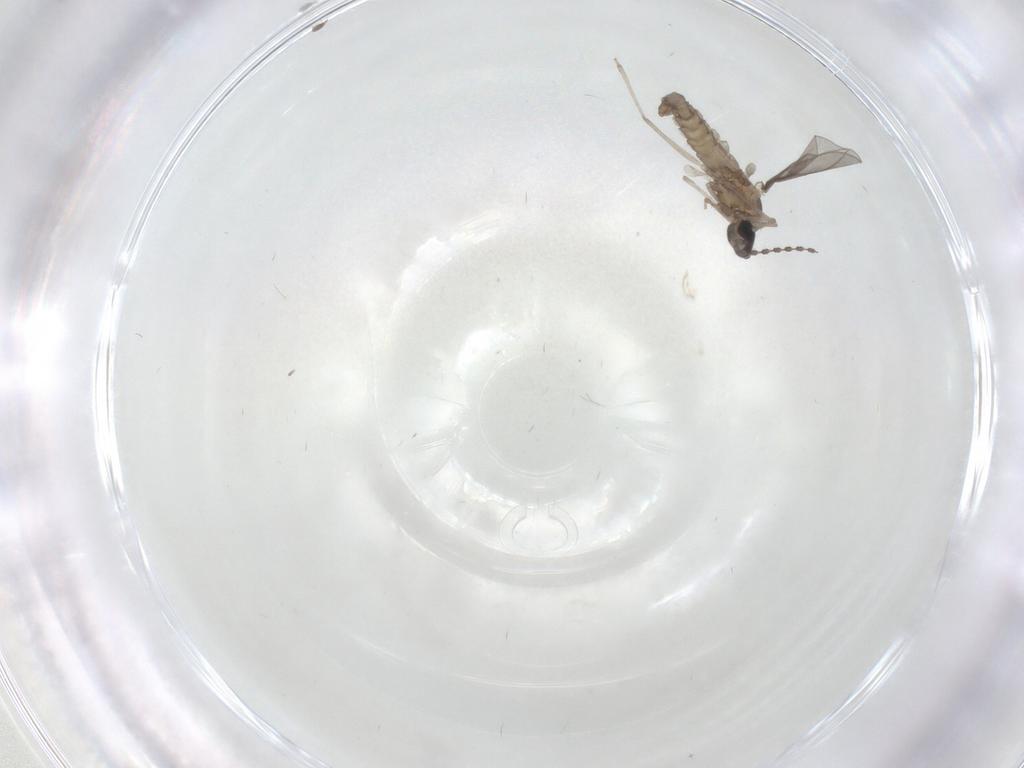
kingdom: Animalia
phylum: Arthropoda
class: Insecta
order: Diptera
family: Cecidomyiidae
